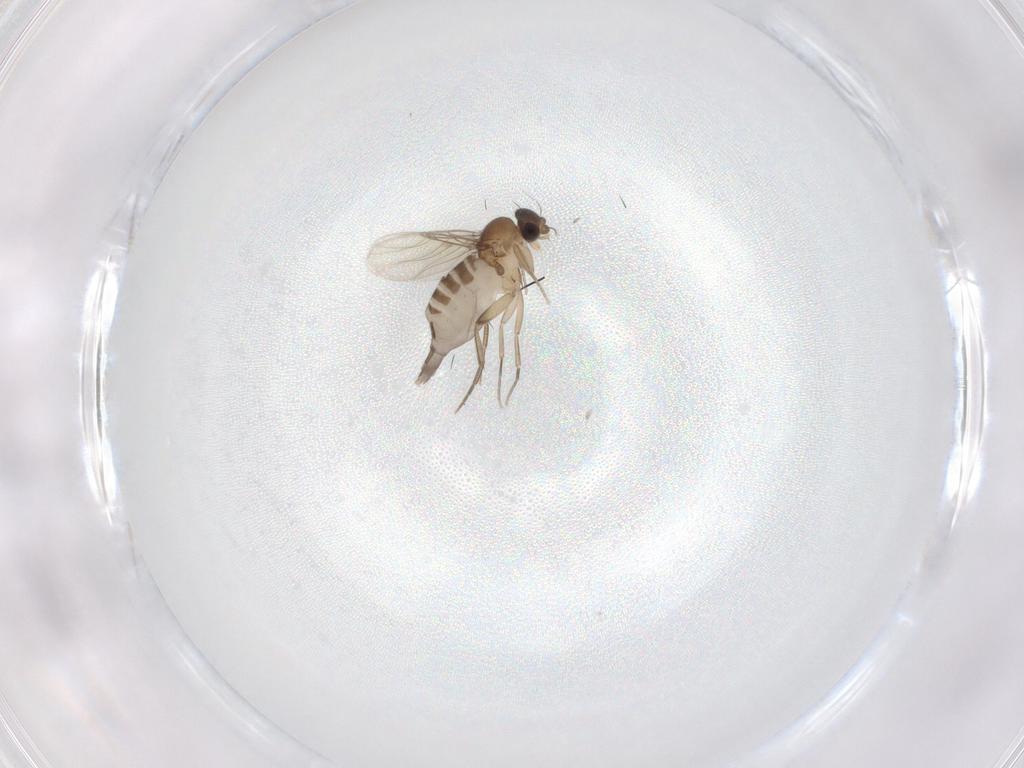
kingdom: Animalia
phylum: Arthropoda
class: Insecta
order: Diptera
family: Phoridae
